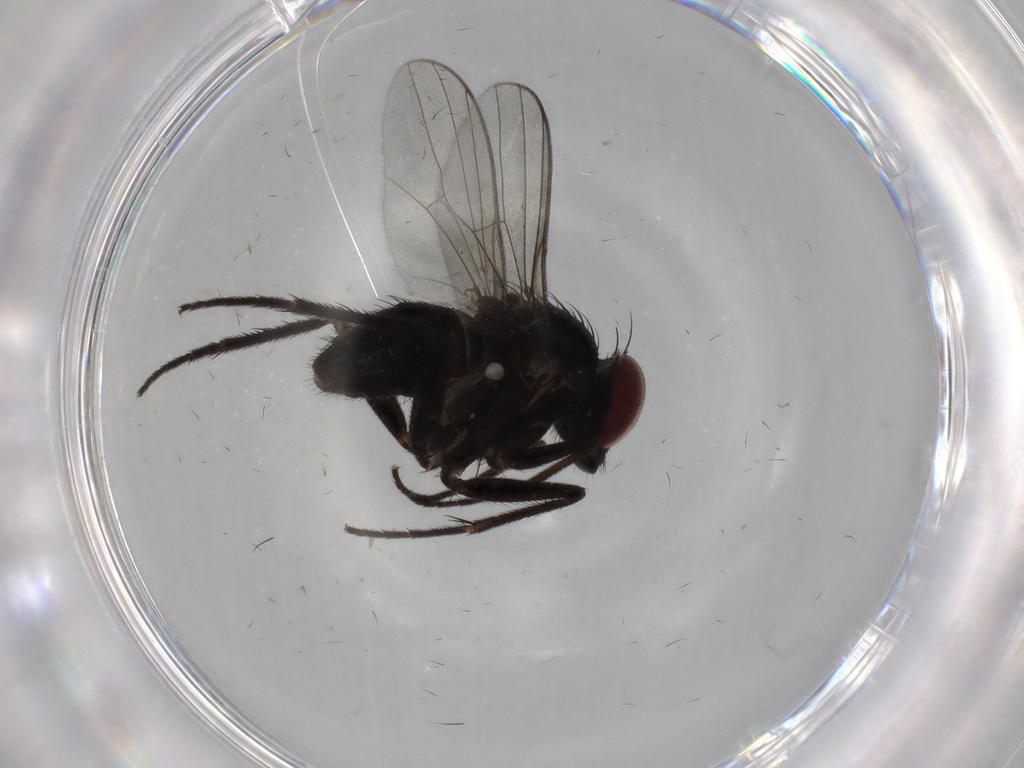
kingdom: Animalia
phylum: Arthropoda
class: Insecta
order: Diptera
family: Dolichopodidae
